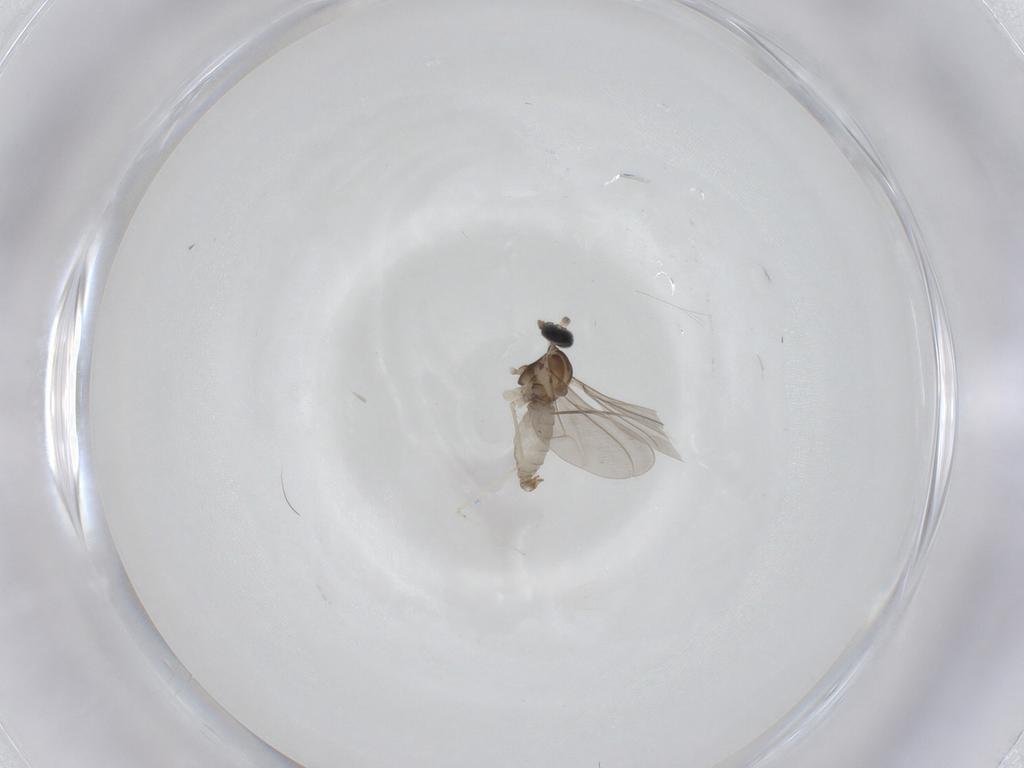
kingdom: Animalia
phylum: Arthropoda
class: Insecta
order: Diptera
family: Cecidomyiidae
